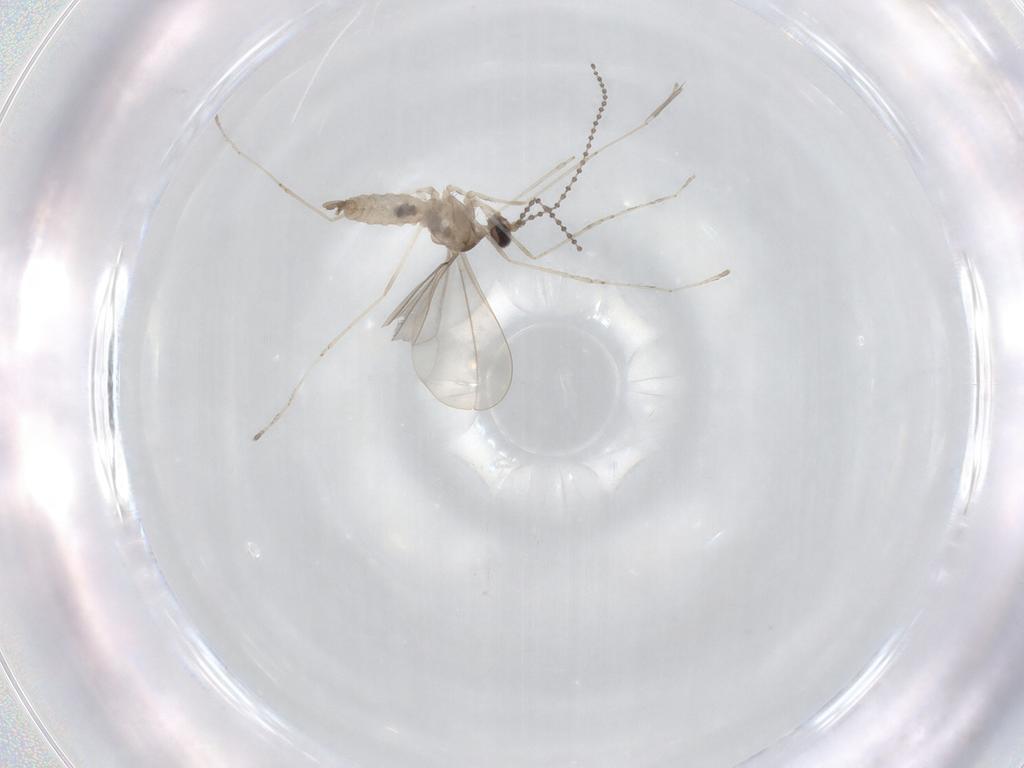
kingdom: Animalia
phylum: Arthropoda
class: Insecta
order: Diptera
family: Cecidomyiidae
